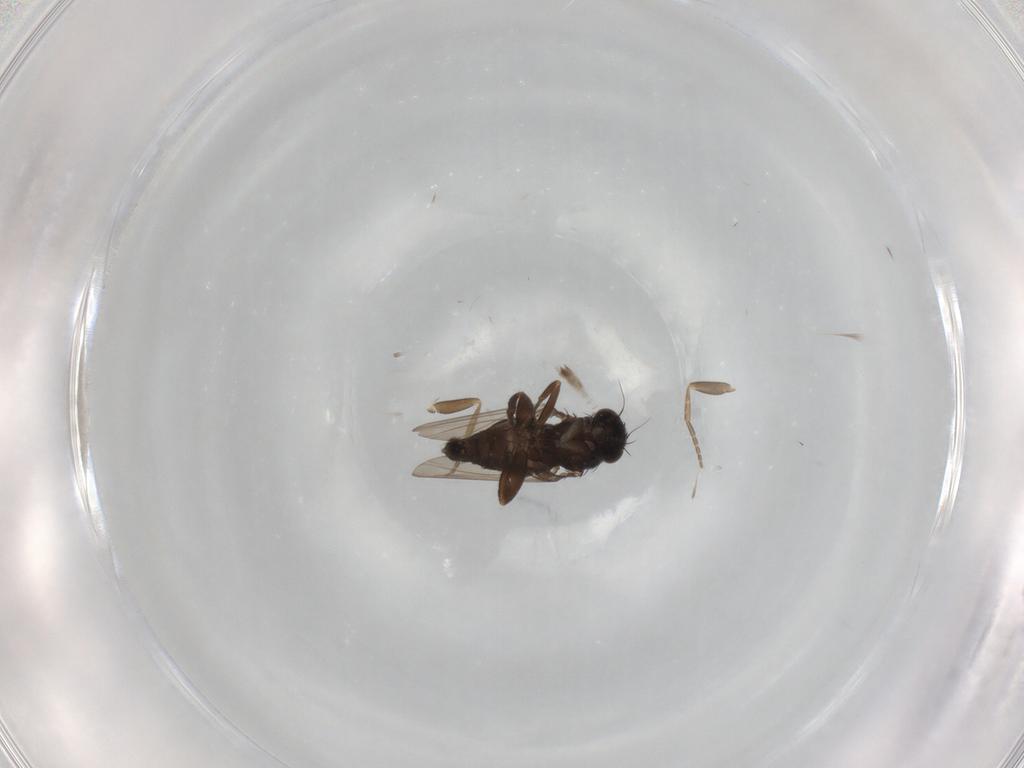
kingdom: Animalia
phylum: Arthropoda
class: Insecta
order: Diptera
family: Phoridae
